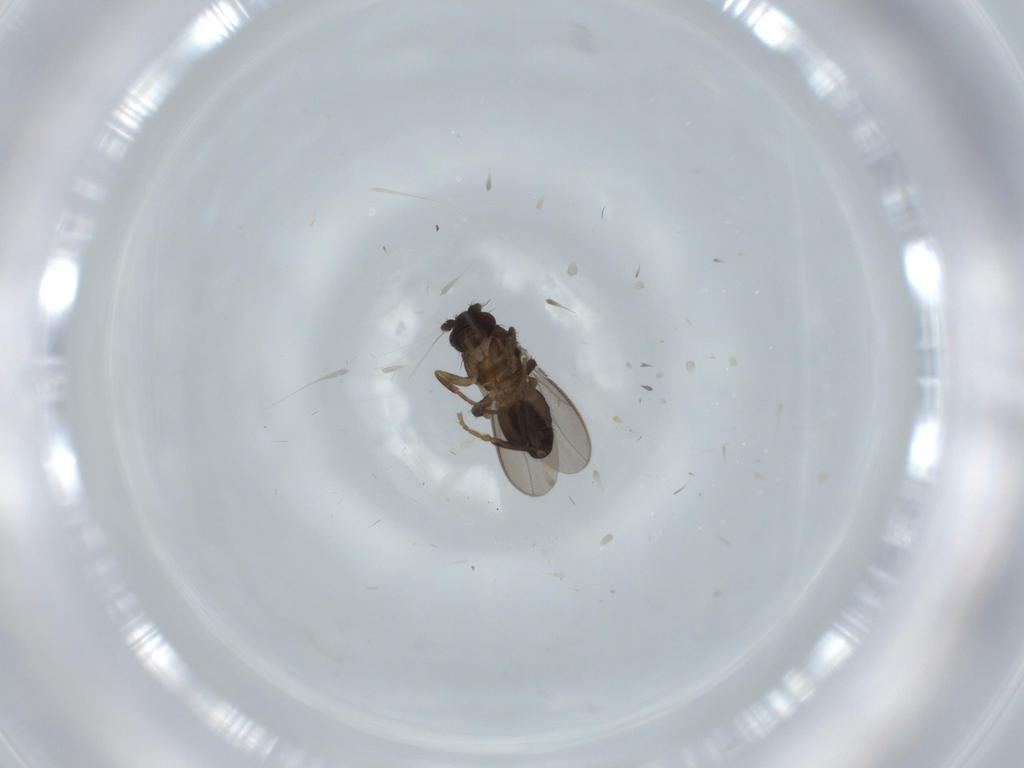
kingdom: Animalia
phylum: Arthropoda
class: Insecta
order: Diptera
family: Sphaeroceridae
